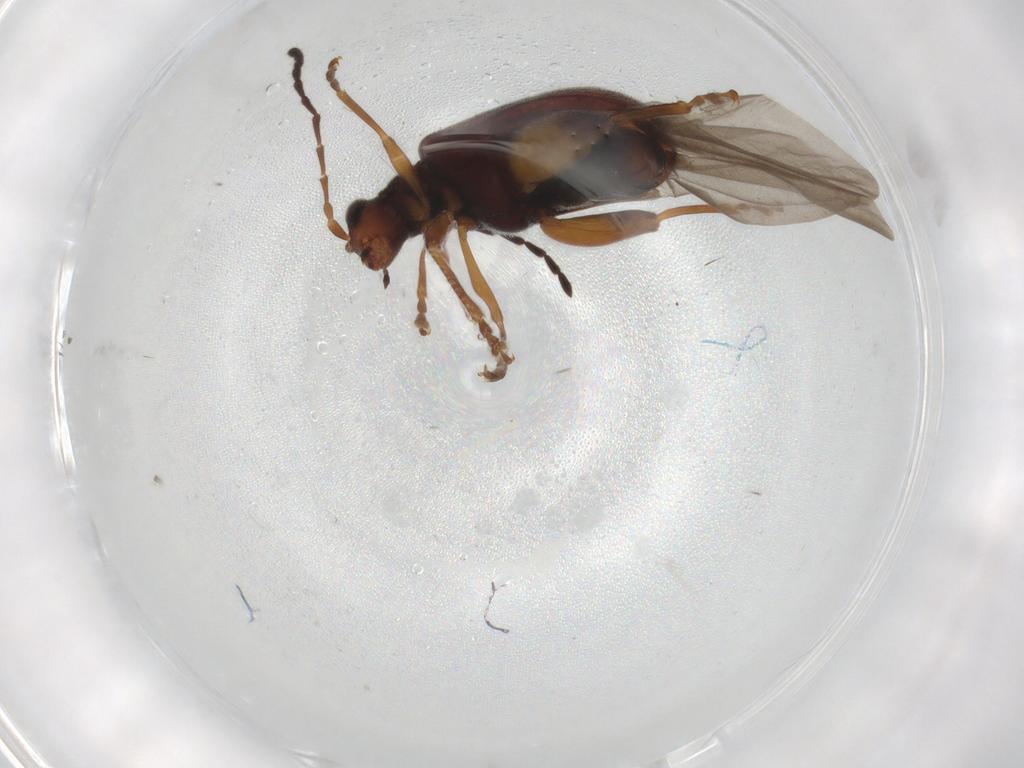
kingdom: Animalia
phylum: Arthropoda
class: Insecta
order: Coleoptera
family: Chrysomelidae
